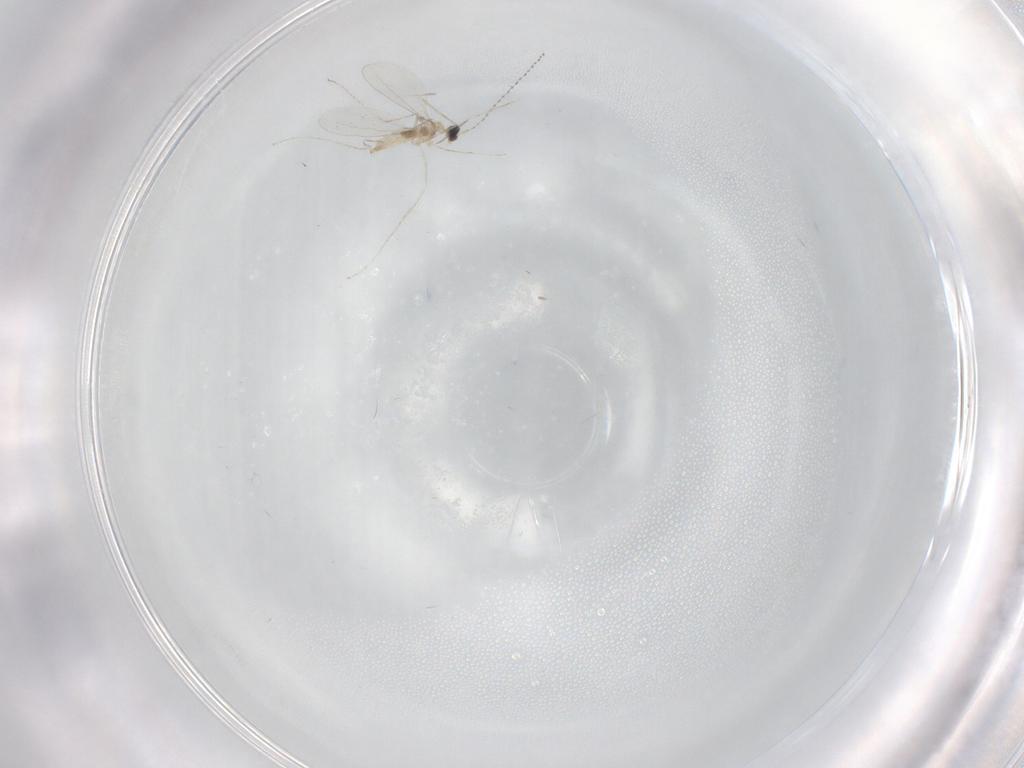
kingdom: Animalia
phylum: Arthropoda
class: Insecta
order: Diptera
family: Cecidomyiidae
